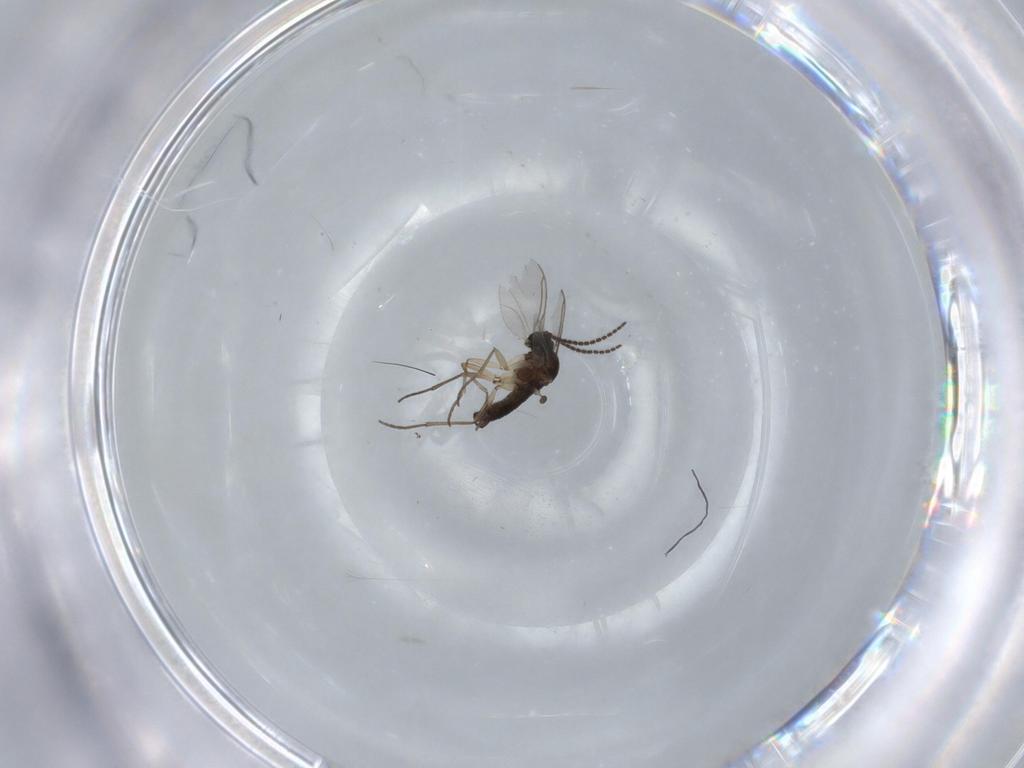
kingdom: Animalia
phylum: Arthropoda
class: Insecta
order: Diptera
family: Sciaridae
